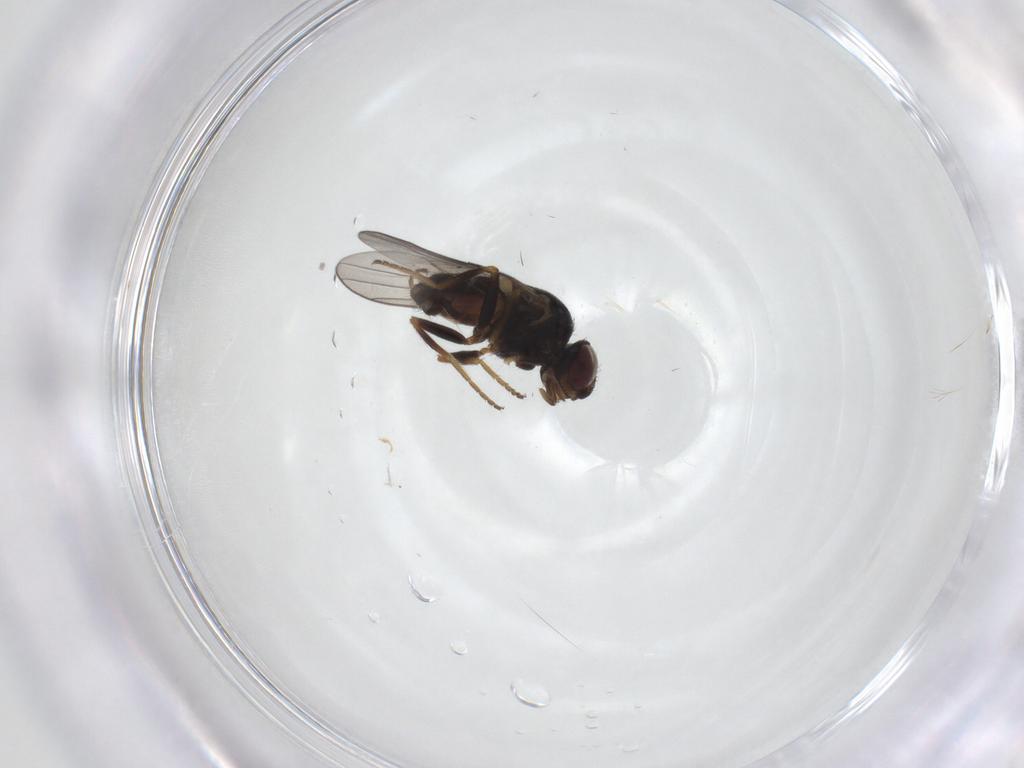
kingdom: Animalia
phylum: Arthropoda
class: Insecta
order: Diptera
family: Chloropidae
